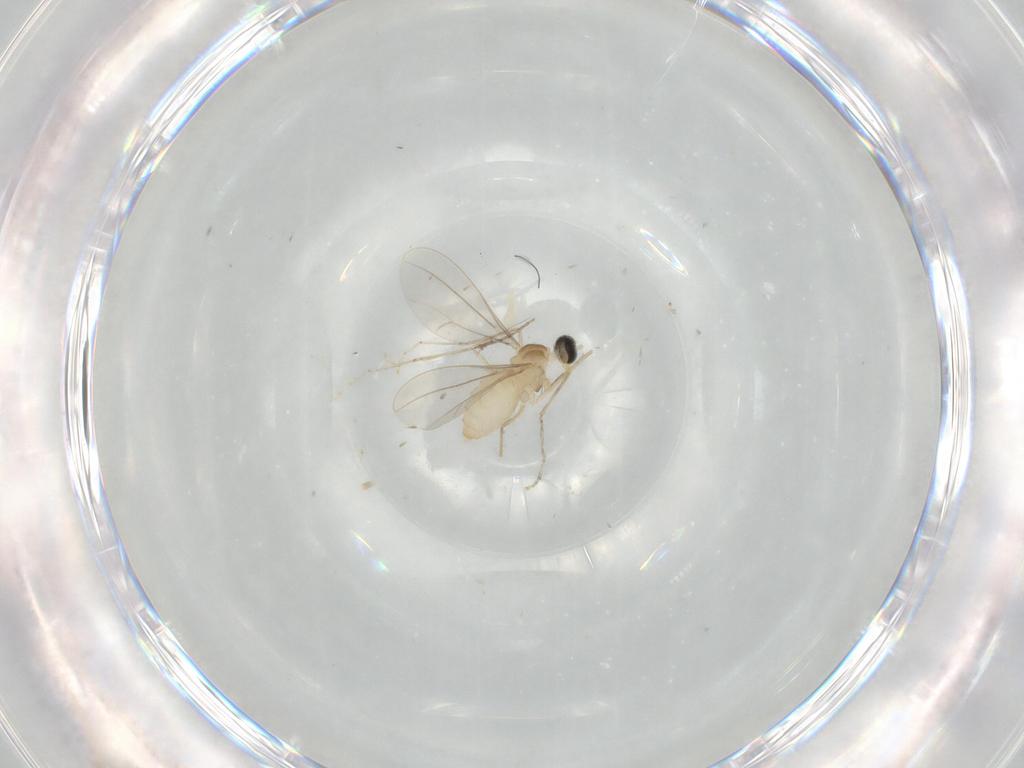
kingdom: Animalia
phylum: Arthropoda
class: Insecta
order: Diptera
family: Cecidomyiidae
